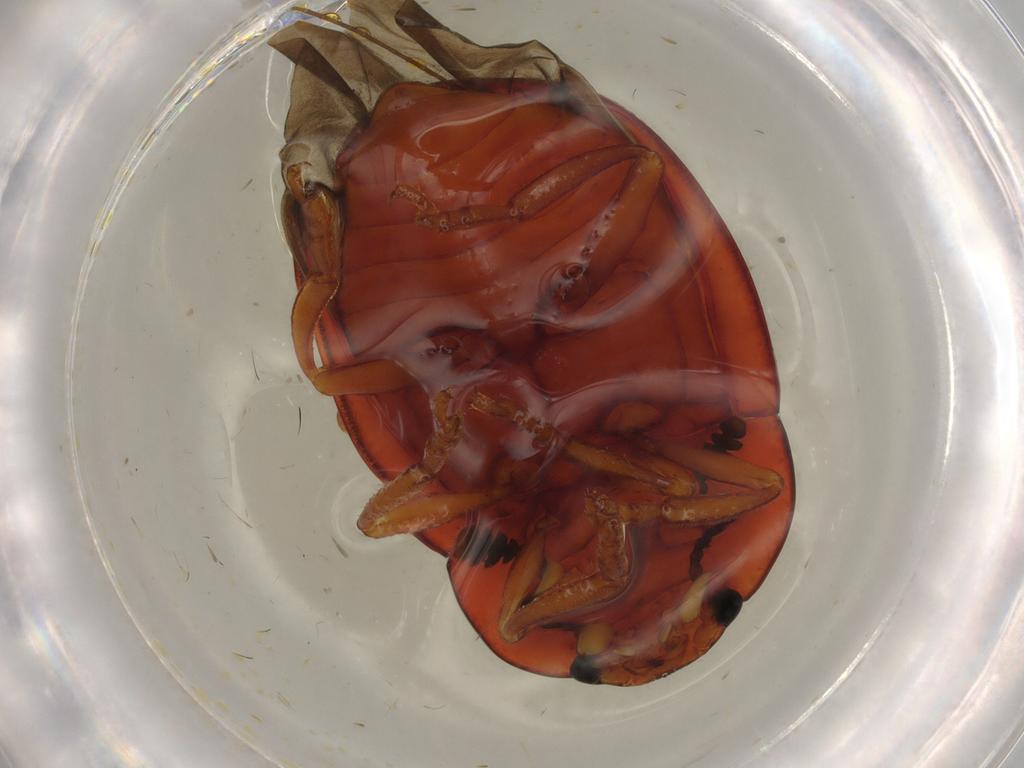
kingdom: Animalia
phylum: Arthropoda
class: Insecta
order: Coleoptera
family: Erotylidae
